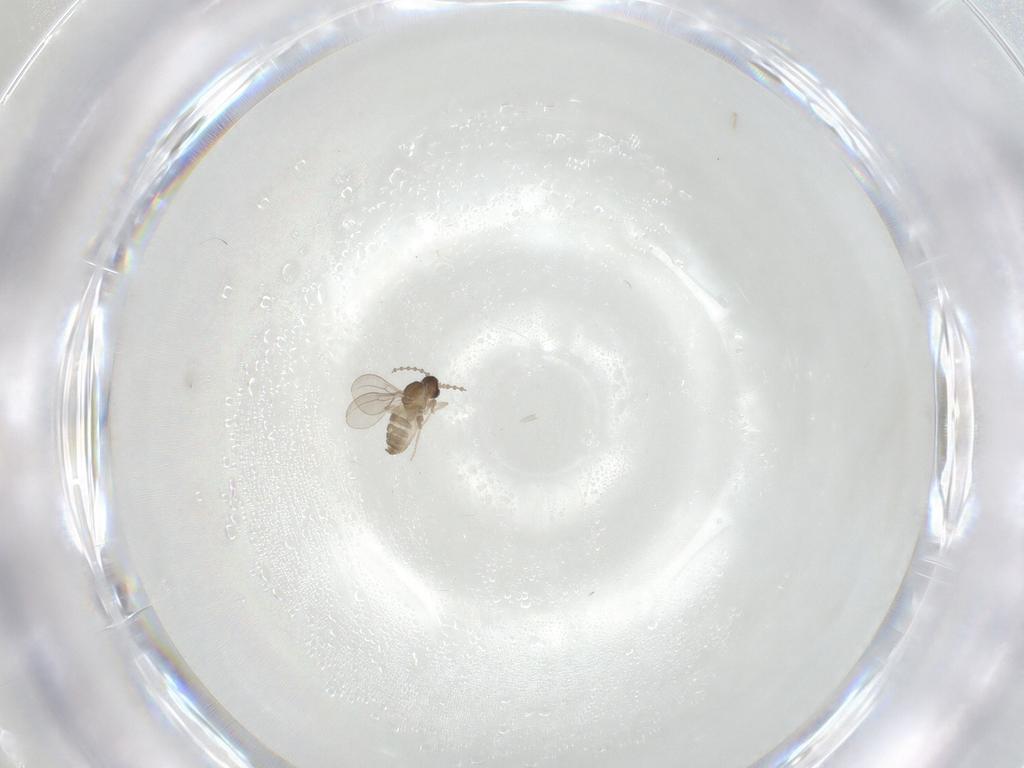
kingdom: Animalia
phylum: Arthropoda
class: Insecta
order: Diptera
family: Cecidomyiidae
